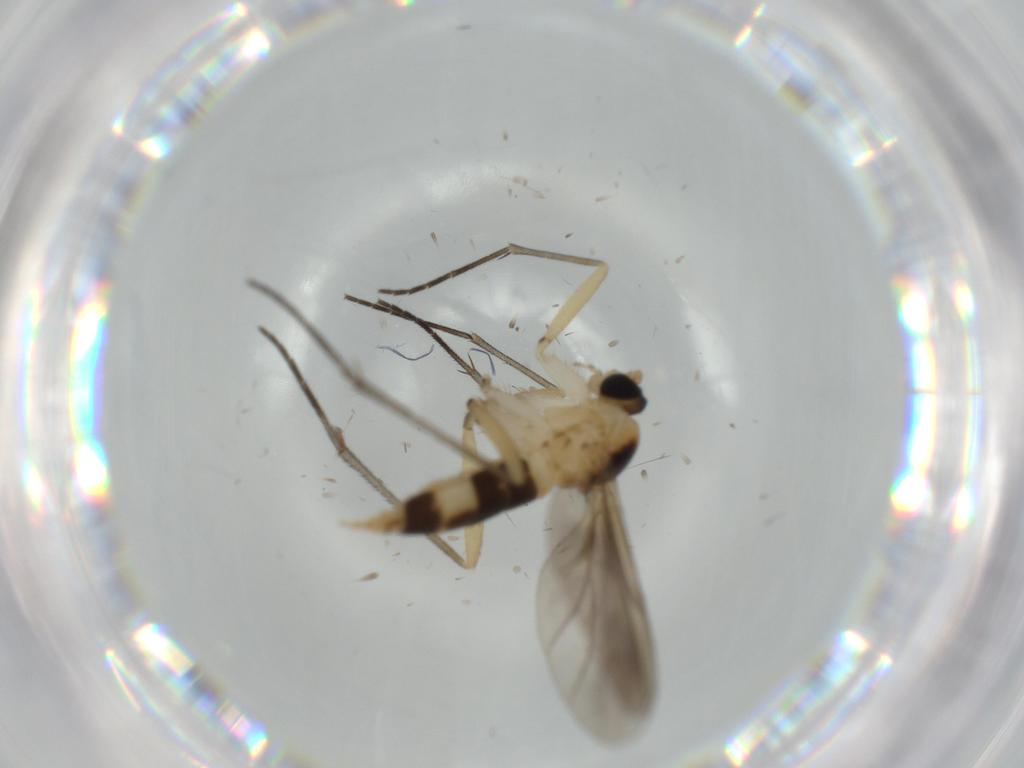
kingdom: Animalia
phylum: Arthropoda
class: Insecta
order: Diptera
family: Sciaridae
